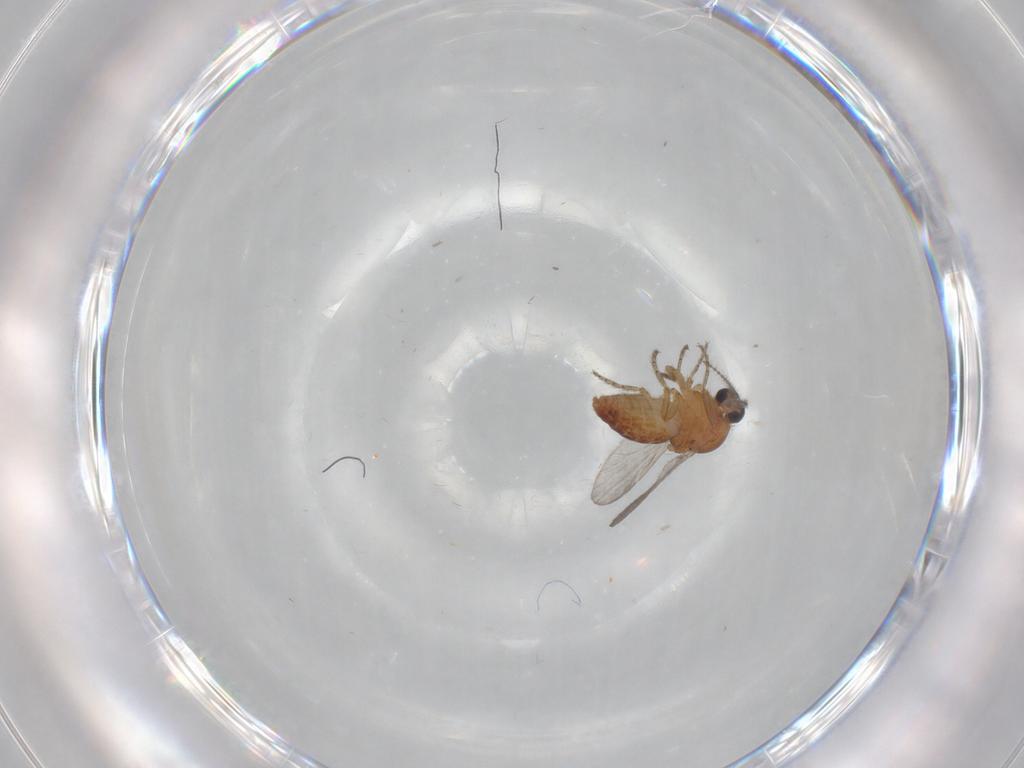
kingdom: Animalia
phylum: Arthropoda
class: Insecta
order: Diptera
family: Ceratopogonidae
